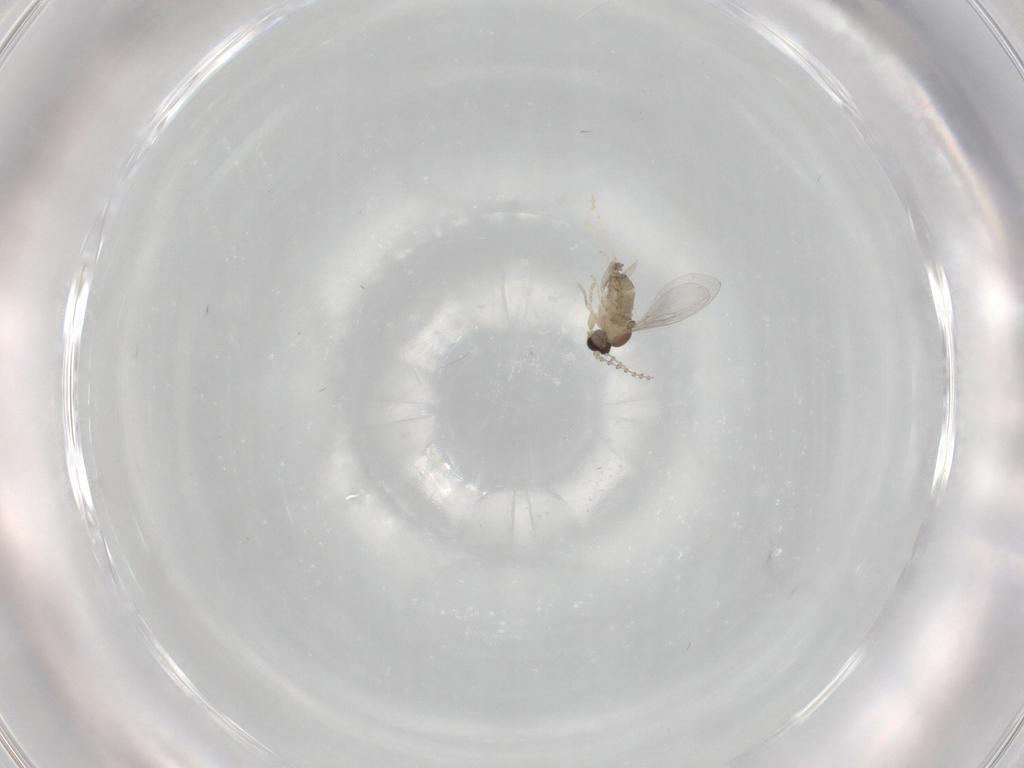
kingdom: Animalia
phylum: Arthropoda
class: Insecta
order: Diptera
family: Cecidomyiidae
